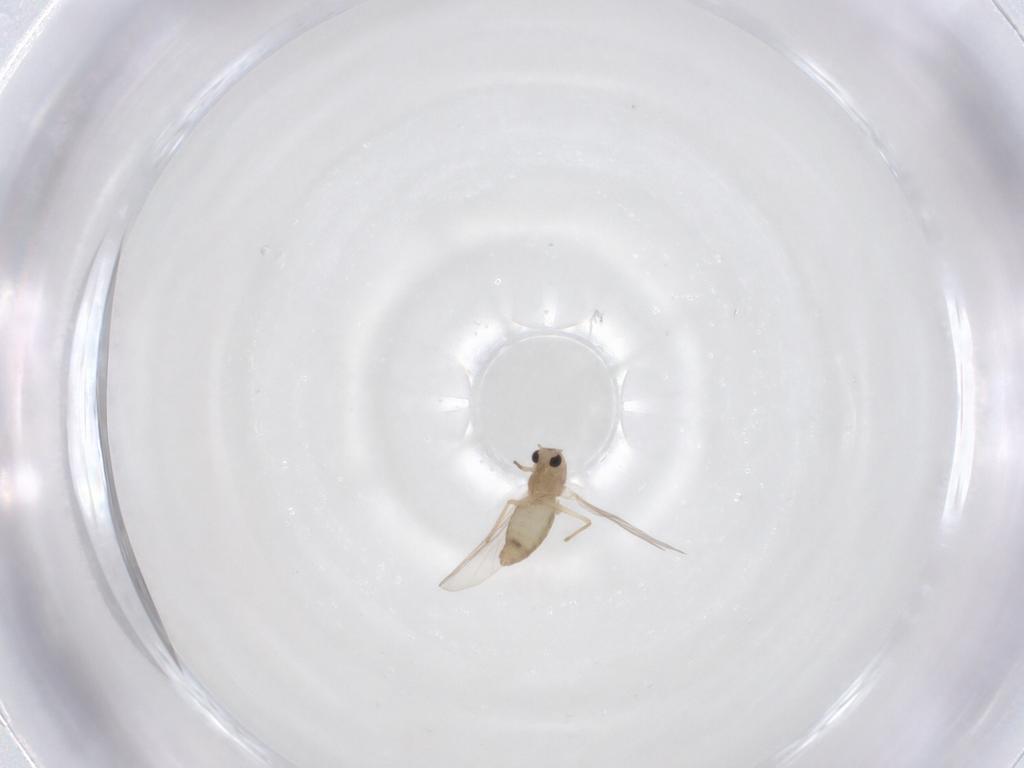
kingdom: Animalia
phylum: Arthropoda
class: Insecta
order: Diptera
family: Chironomidae
